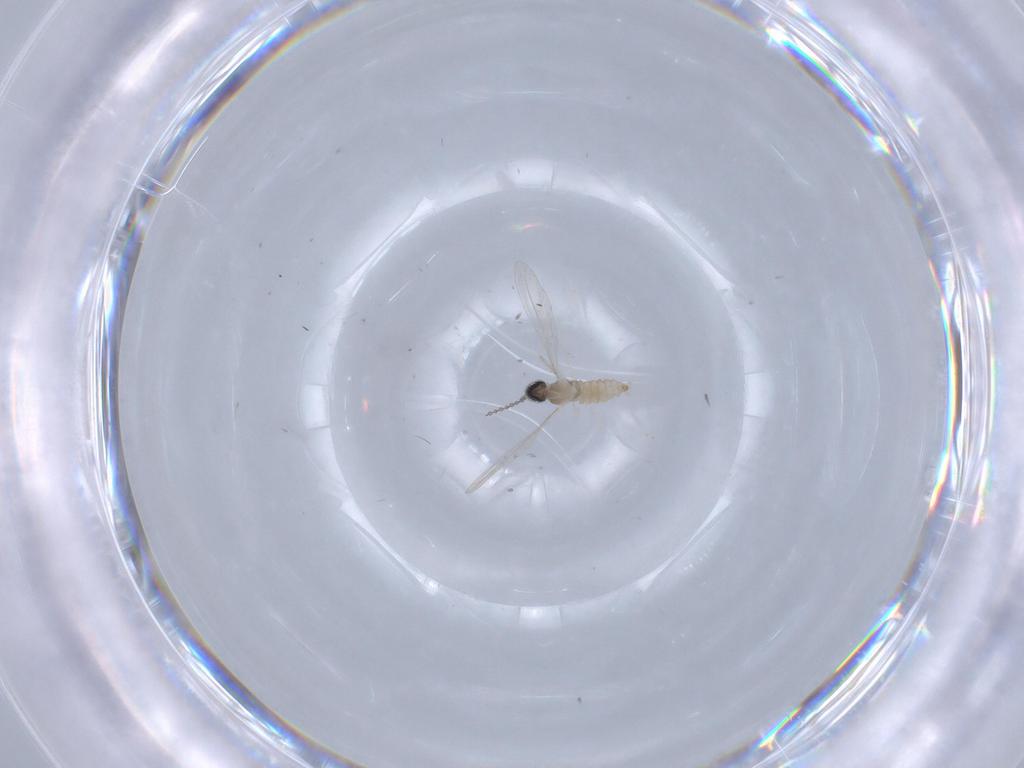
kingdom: Animalia
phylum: Arthropoda
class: Insecta
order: Diptera
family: Cecidomyiidae
